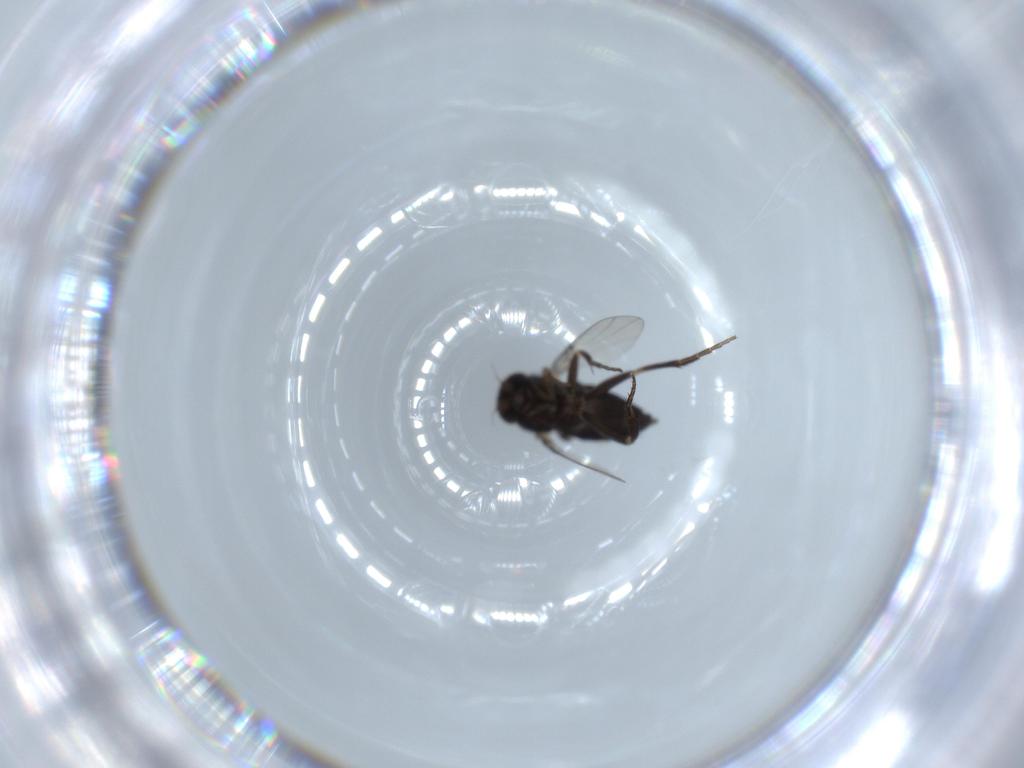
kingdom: Animalia
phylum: Arthropoda
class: Insecta
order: Diptera
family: Phoridae
